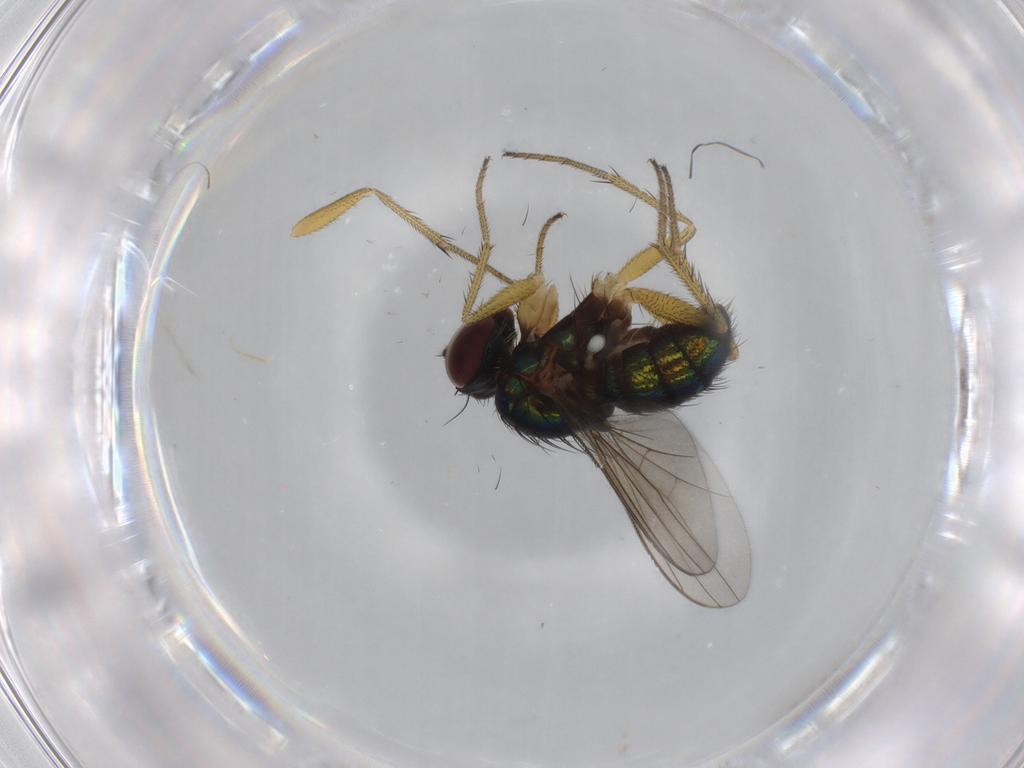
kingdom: Animalia
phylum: Arthropoda
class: Insecta
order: Diptera
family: Dolichopodidae
